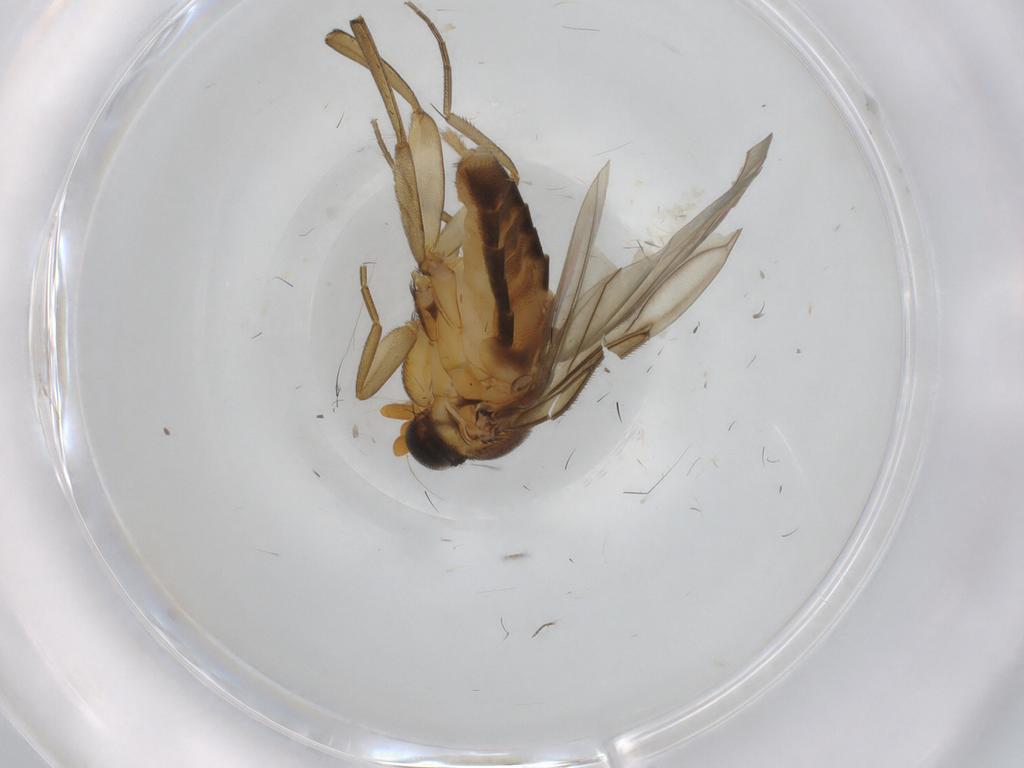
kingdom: Animalia
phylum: Arthropoda
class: Insecta
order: Diptera
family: Phoridae
